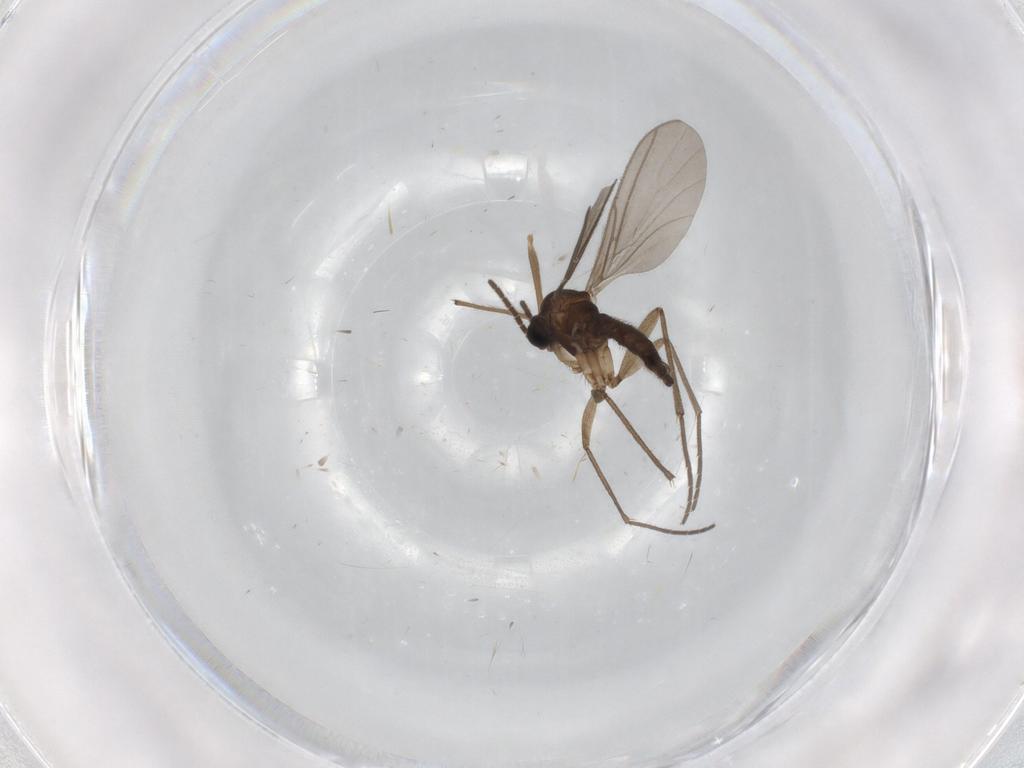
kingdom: Animalia
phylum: Arthropoda
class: Insecta
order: Diptera
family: Sciaridae
